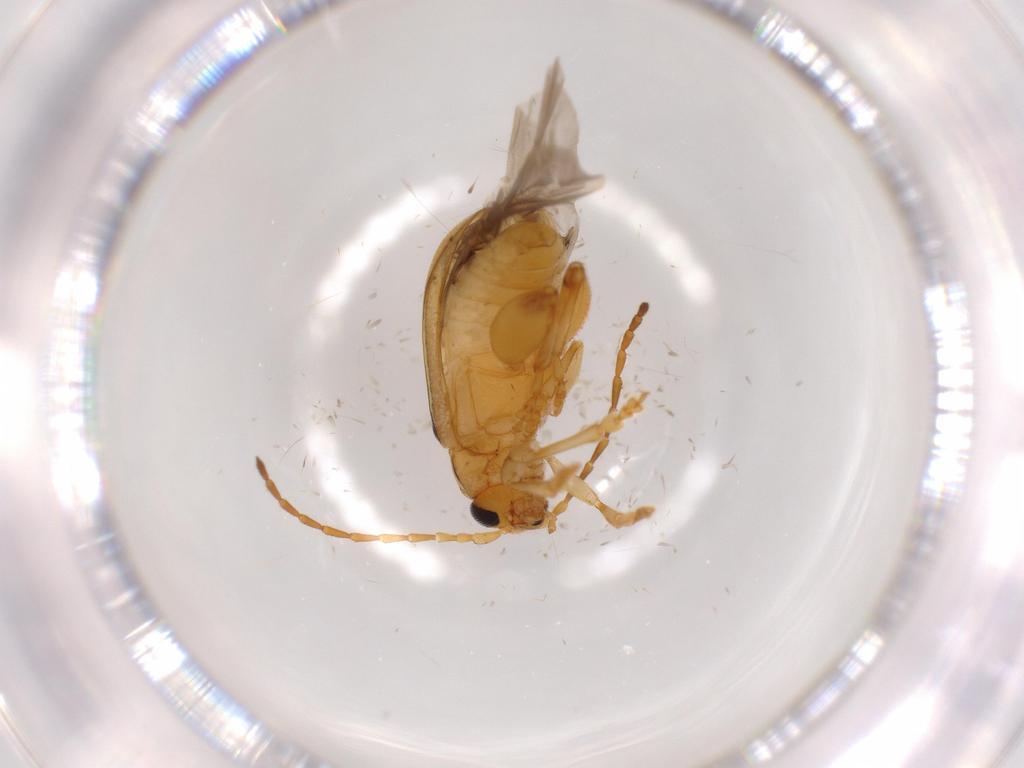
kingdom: Animalia
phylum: Arthropoda
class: Insecta
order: Coleoptera
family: Chrysomelidae
